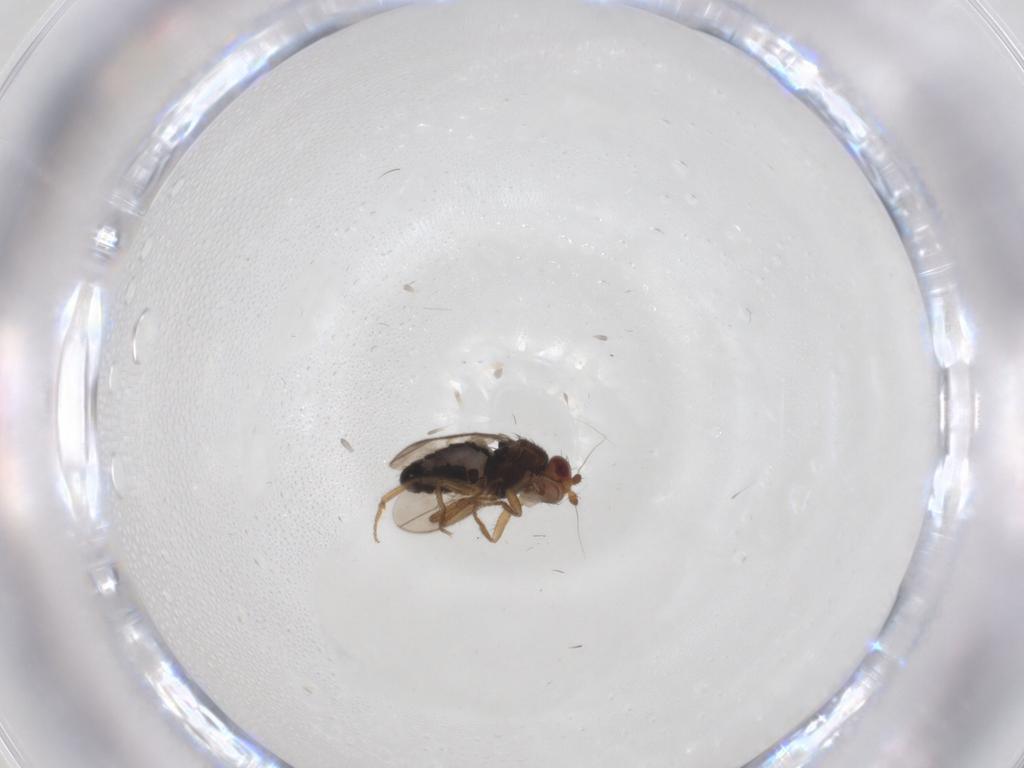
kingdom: Animalia
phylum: Arthropoda
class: Insecta
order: Diptera
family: Sphaeroceridae
